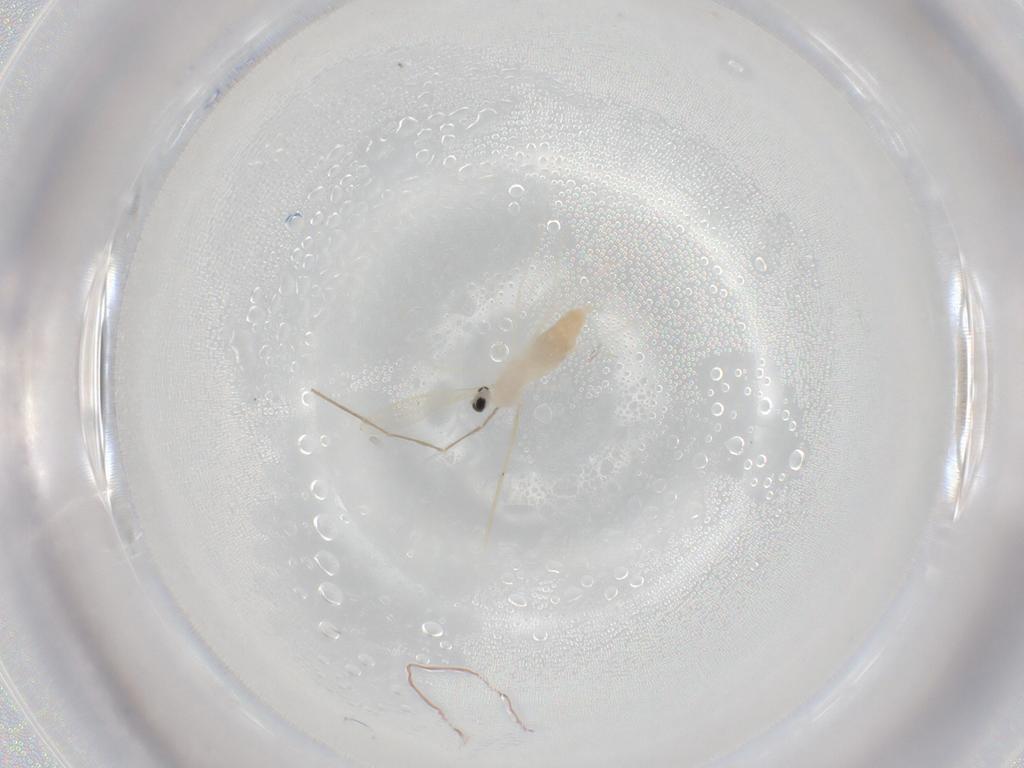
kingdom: Animalia
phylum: Arthropoda
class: Insecta
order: Diptera
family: Chironomidae
